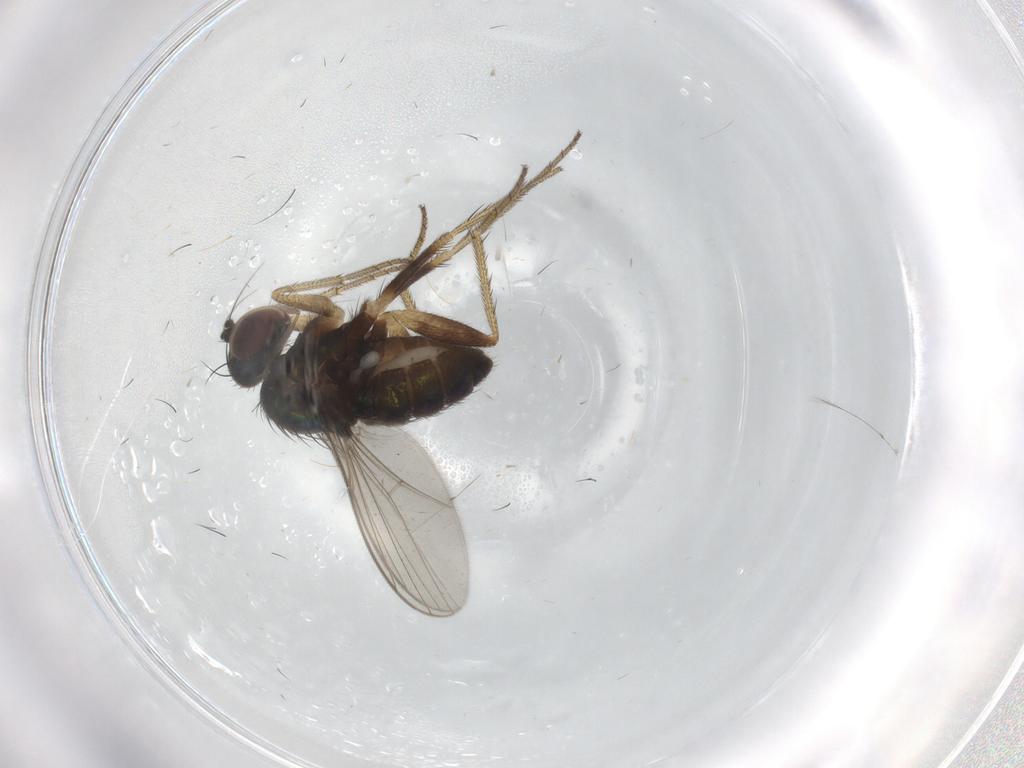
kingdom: Animalia
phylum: Arthropoda
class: Insecta
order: Diptera
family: Psychodidae
